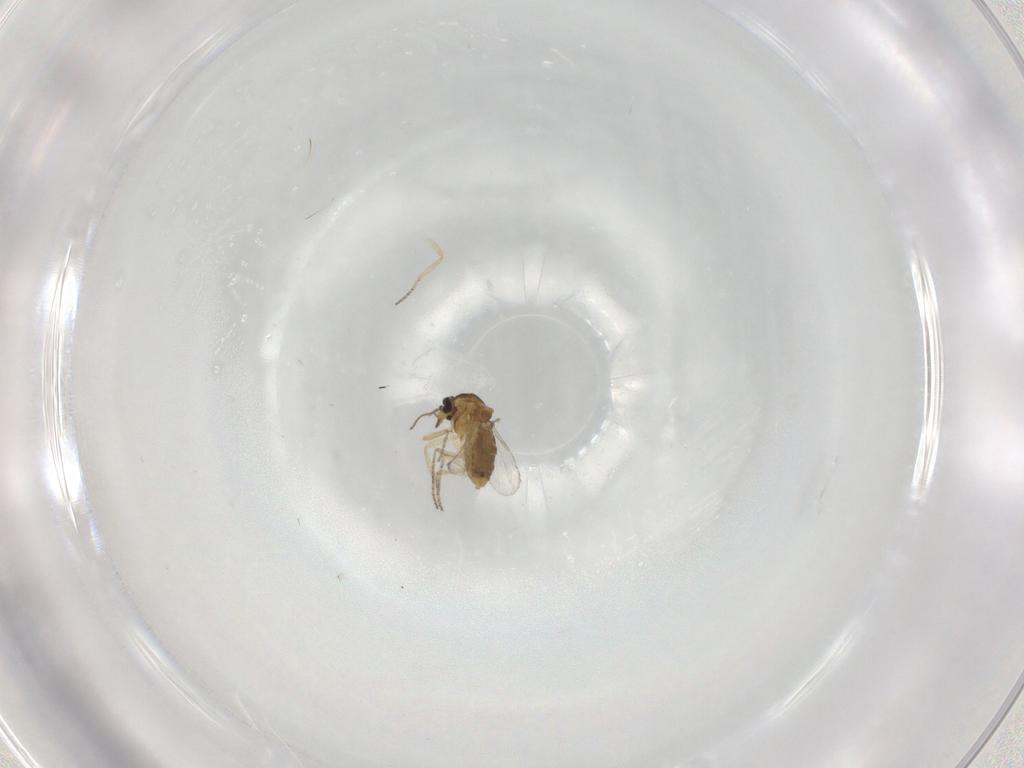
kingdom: Animalia
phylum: Arthropoda
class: Insecta
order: Diptera
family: Ceratopogonidae
